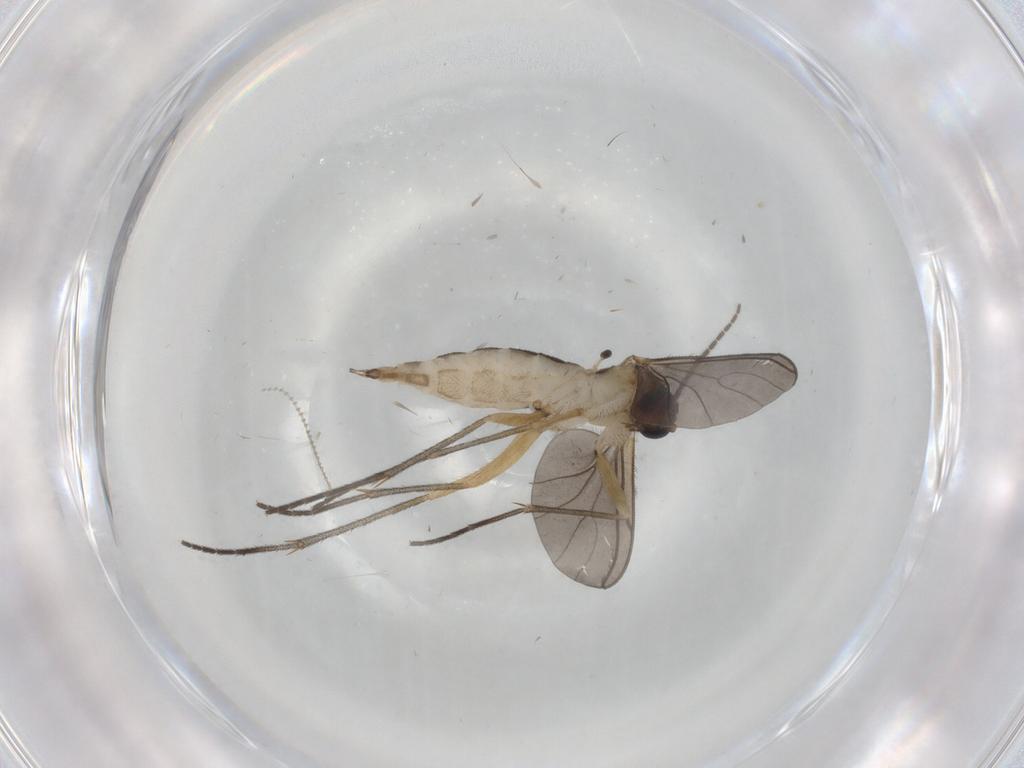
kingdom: Animalia
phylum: Arthropoda
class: Insecta
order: Diptera
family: Sciaridae
